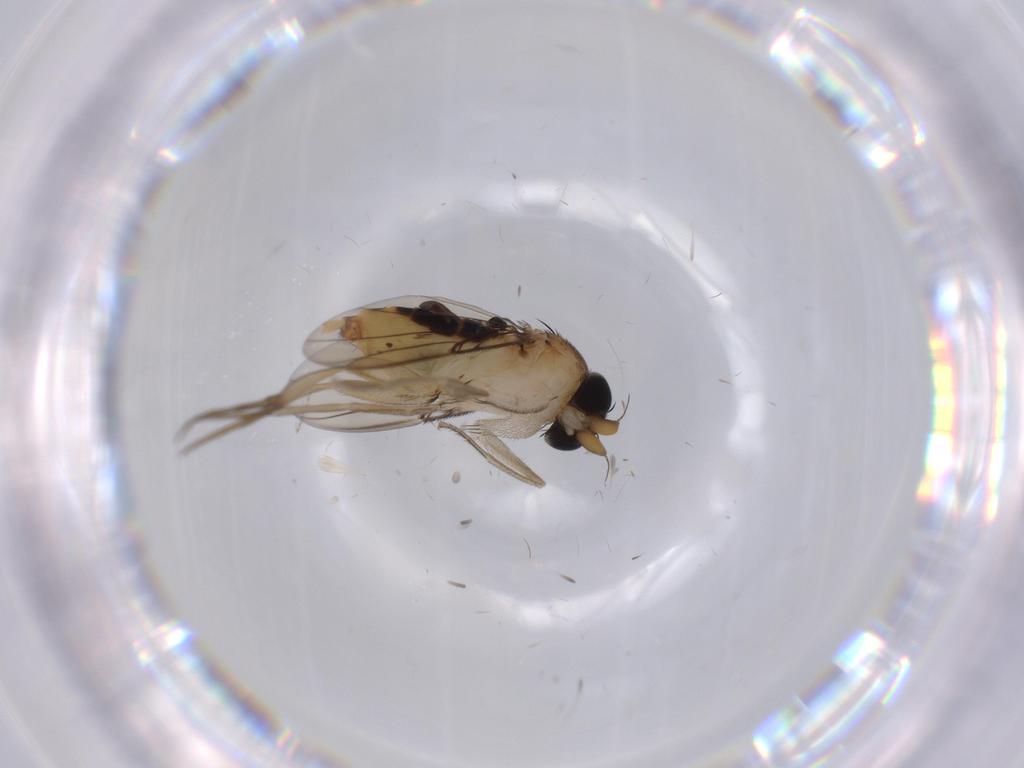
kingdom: Animalia
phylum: Arthropoda
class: Insecta
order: Diptera
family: Phoridae
